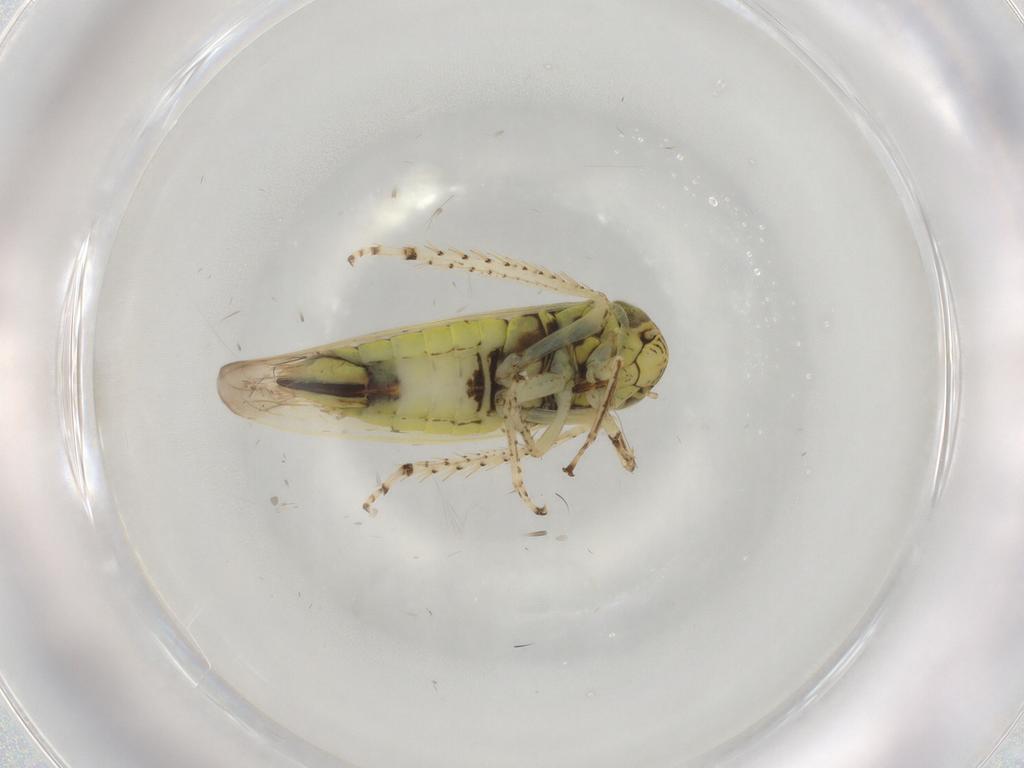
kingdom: Animalia
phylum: Arthropoda
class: Insecta
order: Hemiptera
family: Cicadellidae
